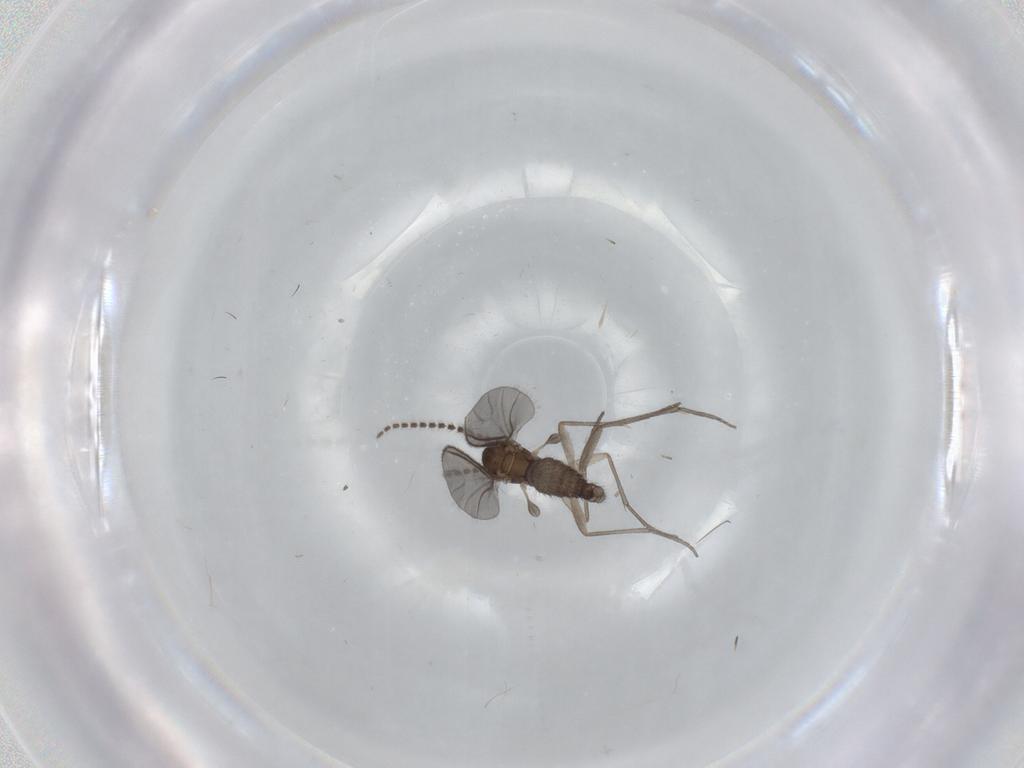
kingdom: Animalia
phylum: Arthropoda
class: Insecta
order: Diptera
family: Sciaridae
